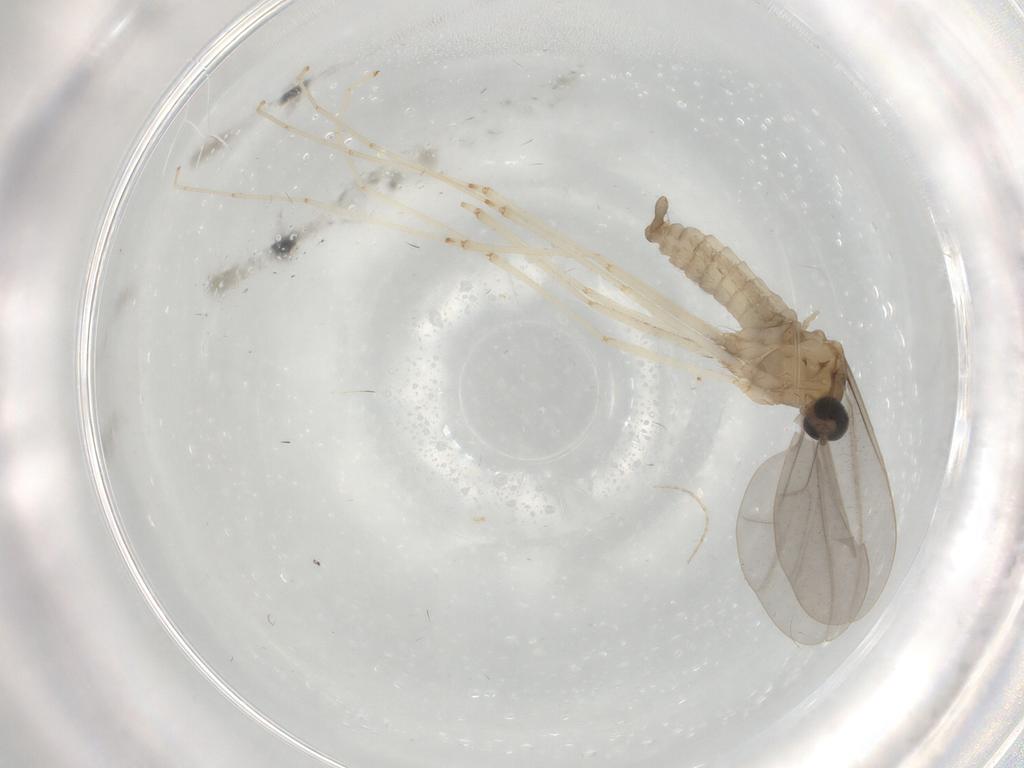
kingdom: Animalia
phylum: Arthropoda
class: Insecta
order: Diptera
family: Cecidomyiidae
